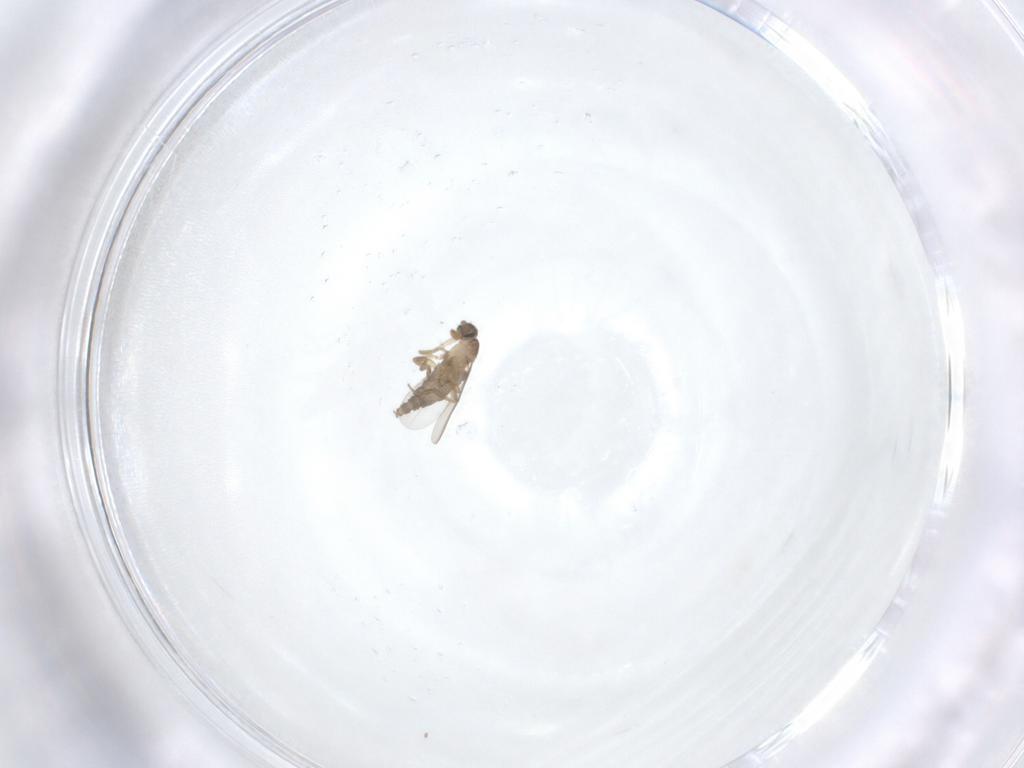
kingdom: Animalia
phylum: Arthropoda
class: Insecta
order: Diptera
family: Phoridae
